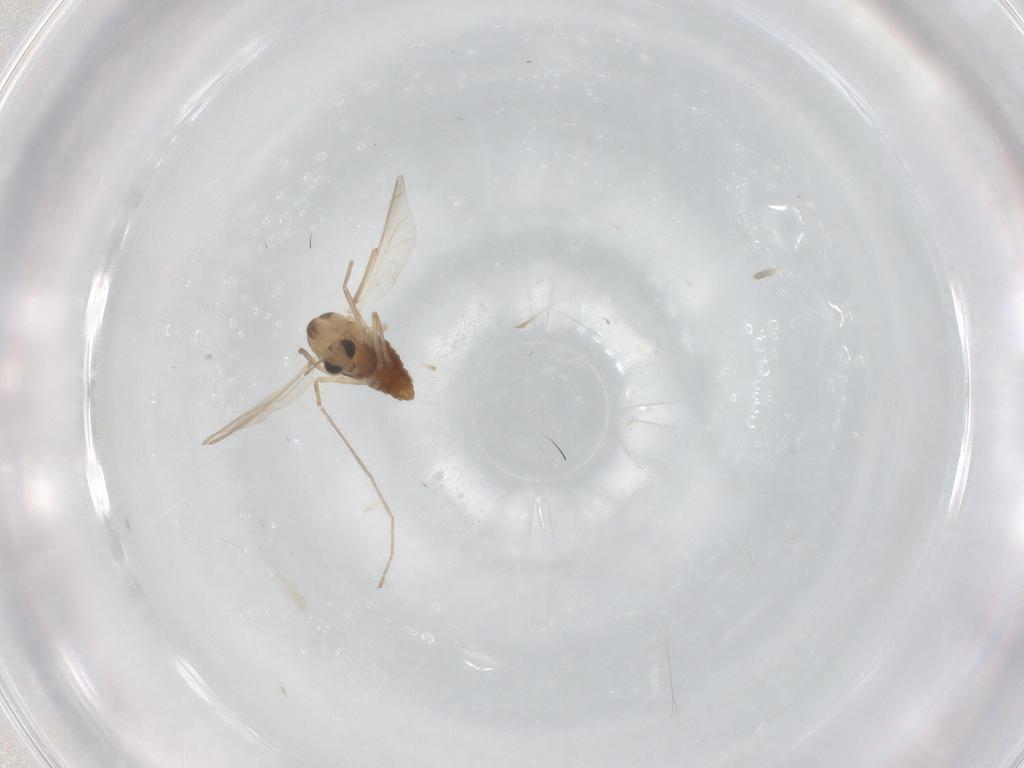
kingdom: Animalia
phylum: Arthropoda
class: Insecta
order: Diptera
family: Chironomidae
